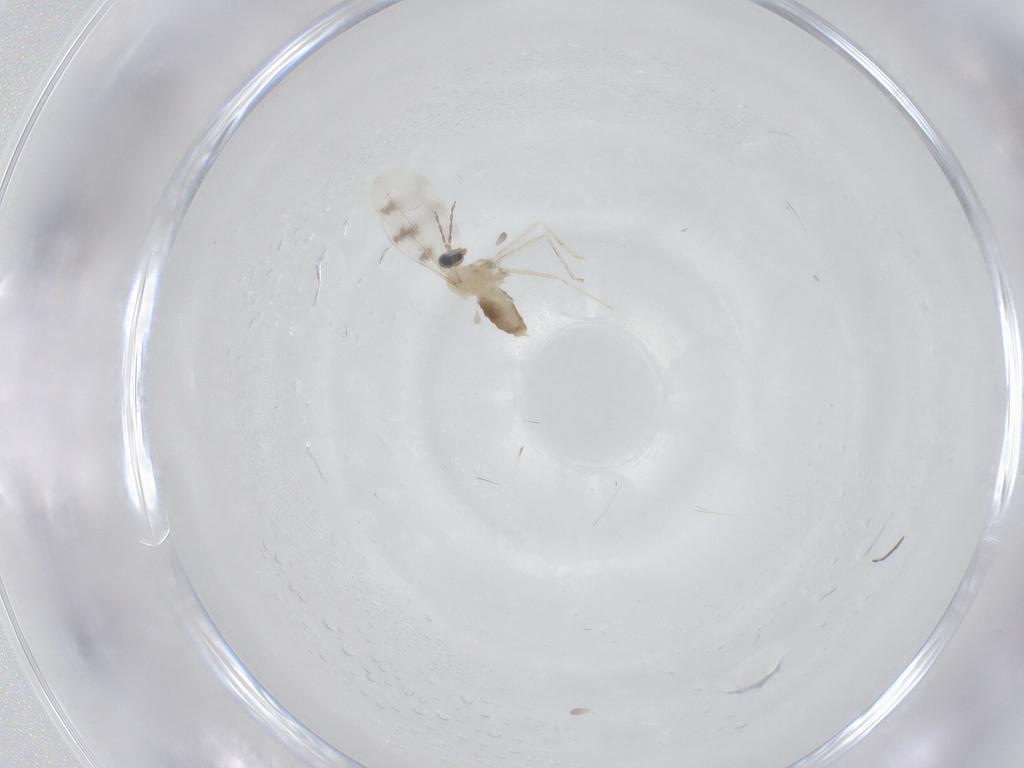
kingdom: Animalia
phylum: Arthropoda
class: Insecta
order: Diptera
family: Cecidomyiidae
